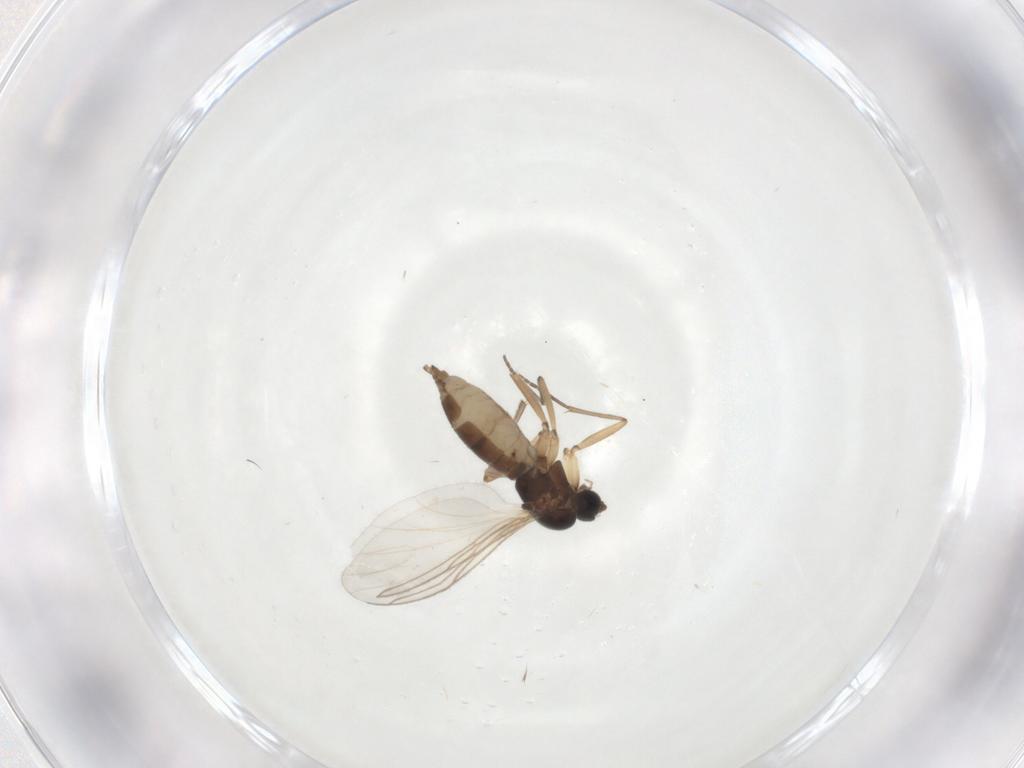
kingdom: Animalia
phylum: Arthropoda
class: Insecta
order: Diptera
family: Sciaridae
